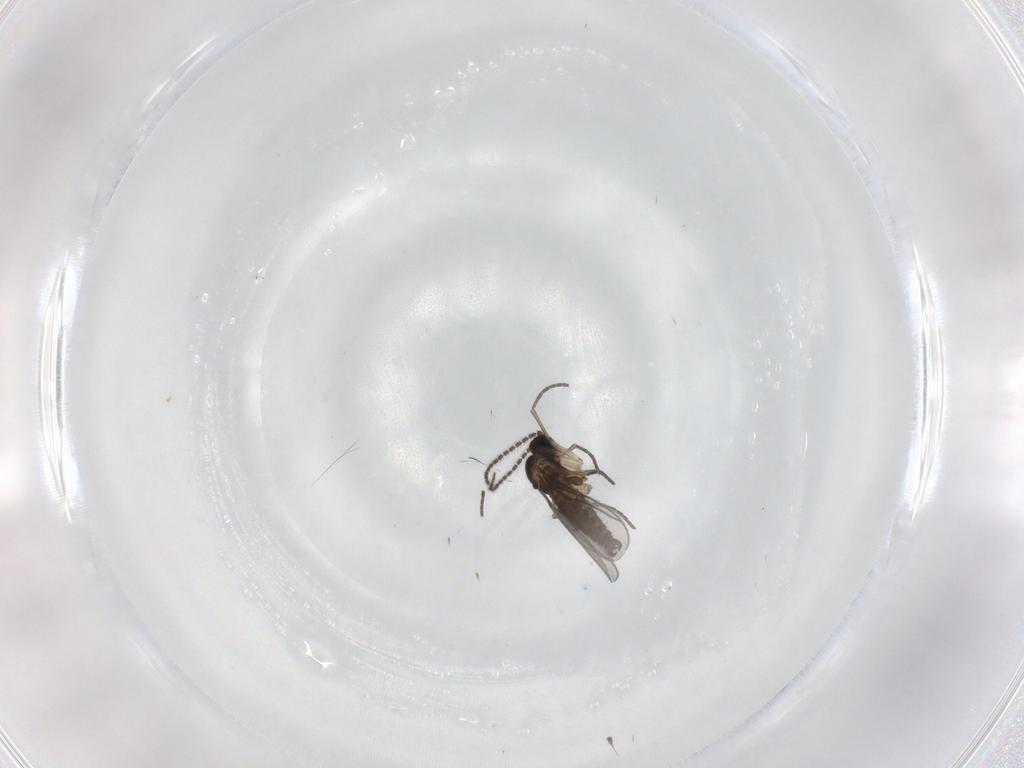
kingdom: Animalia
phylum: Arthropoda
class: Insecta
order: Diptera
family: Sciaridae
